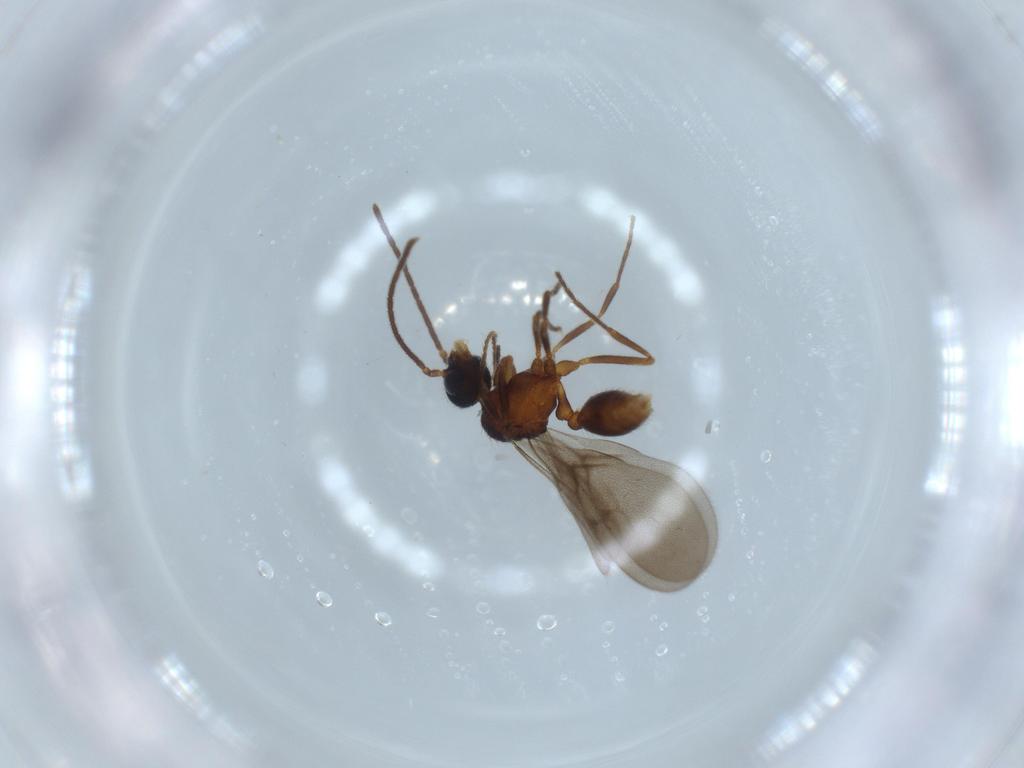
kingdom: Animalia
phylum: Arthropoda
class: Insecta
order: Hymenoptera
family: Formicidae
